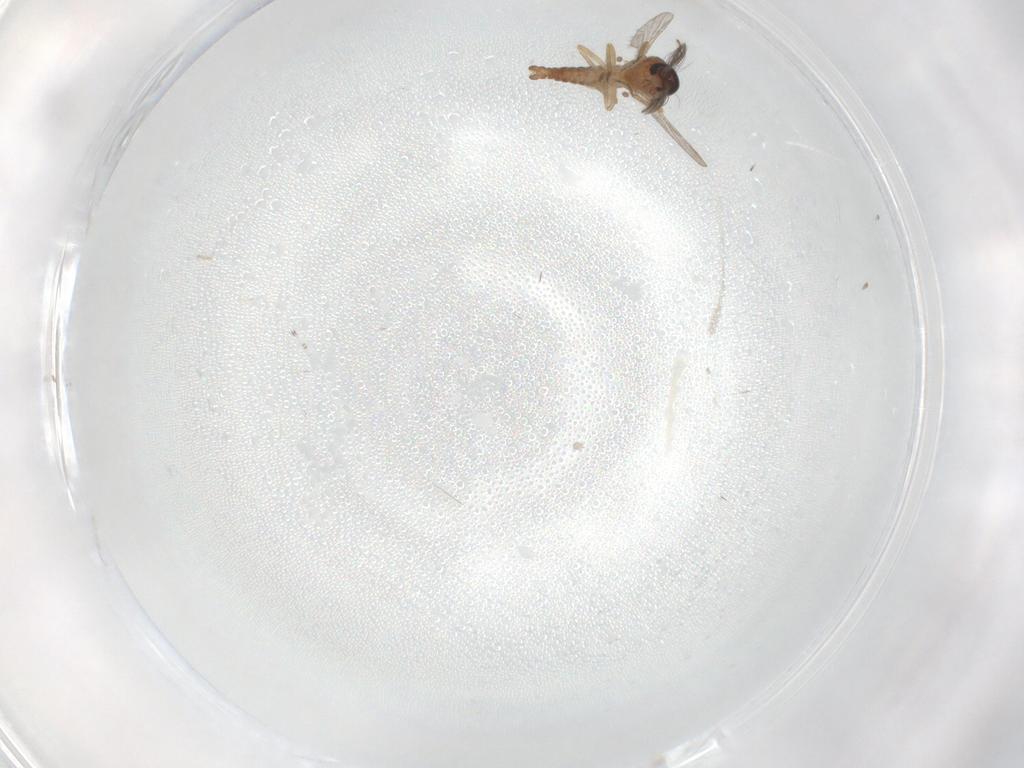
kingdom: Animalia
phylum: Arthropoda
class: Insecta
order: Diptera
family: Ceratopogonidae
